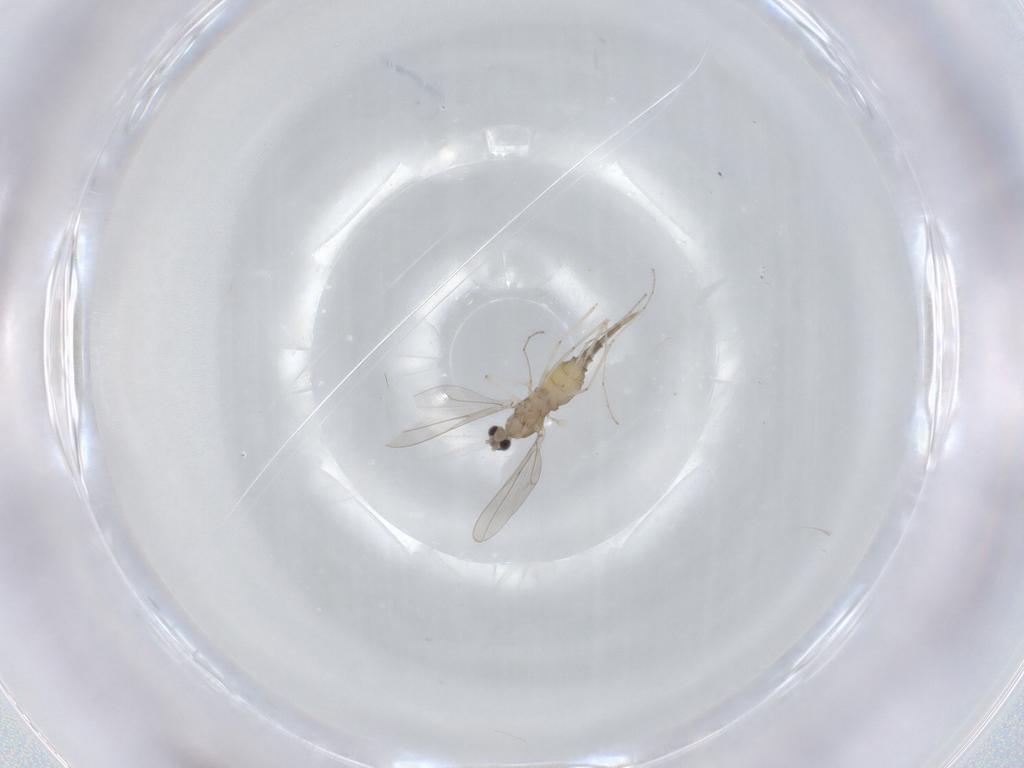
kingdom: Animalia
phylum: Arthropoda
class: Insecta
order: Diptera
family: Cecidomyiidae
